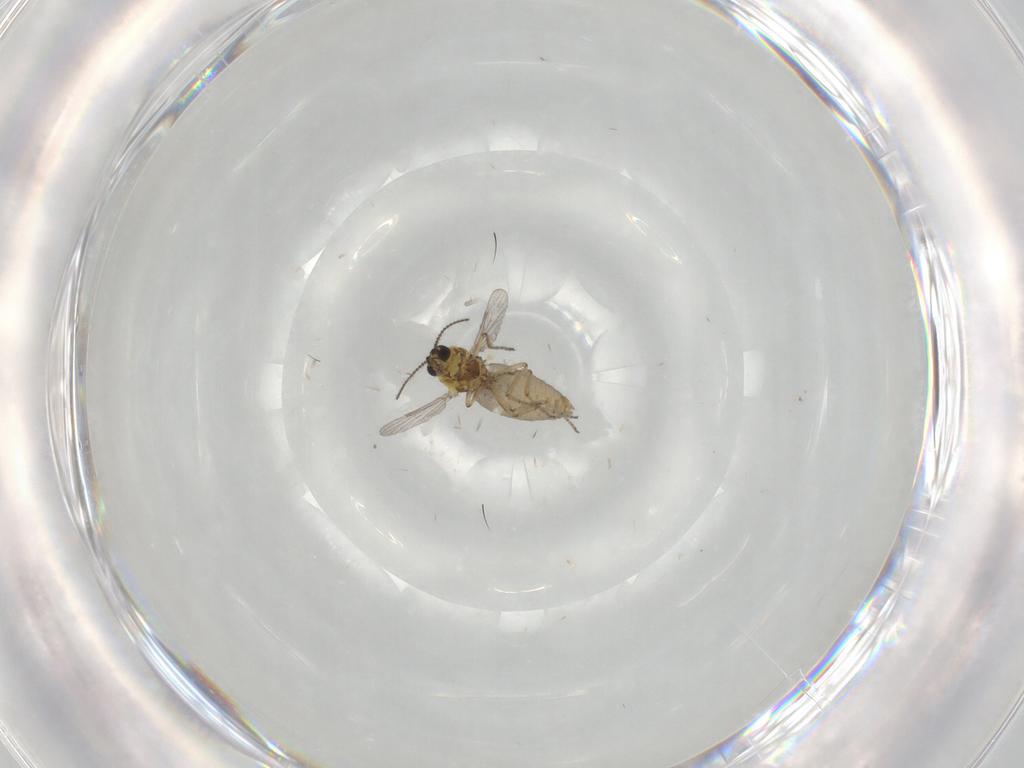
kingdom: Animalia
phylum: Arthropoda
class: Insecta
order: Diptera
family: Ceratopogonidae
